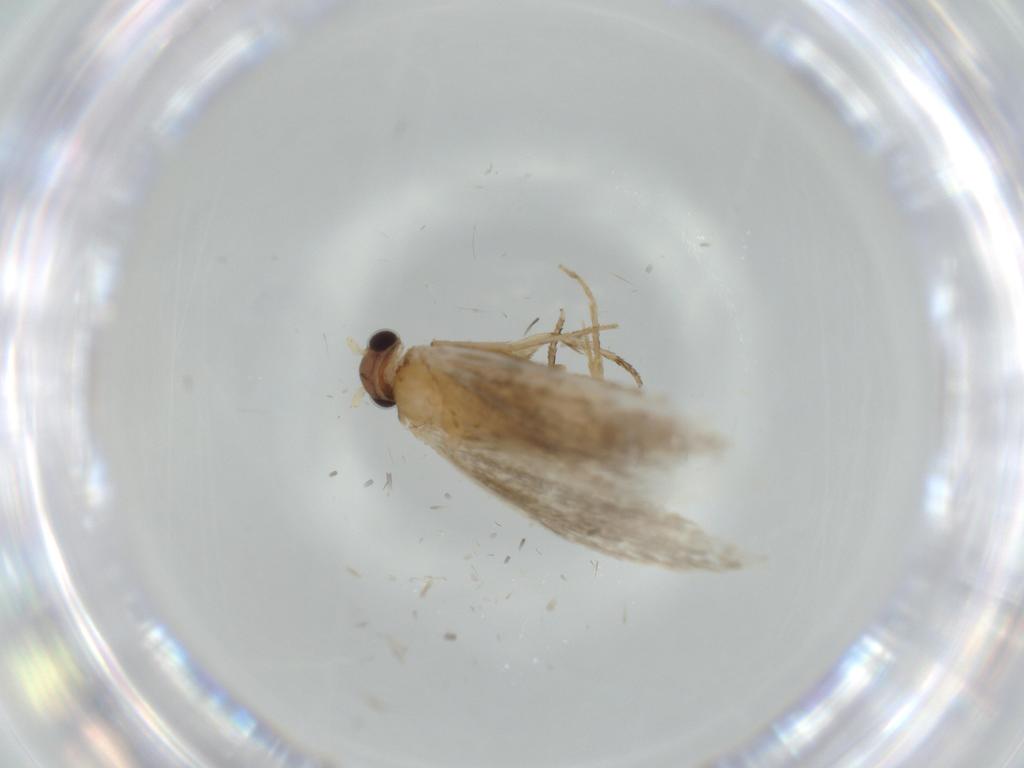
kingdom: Animalia
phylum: Arthropoda
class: Insecta
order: Lepidoptera
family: Tineidae
